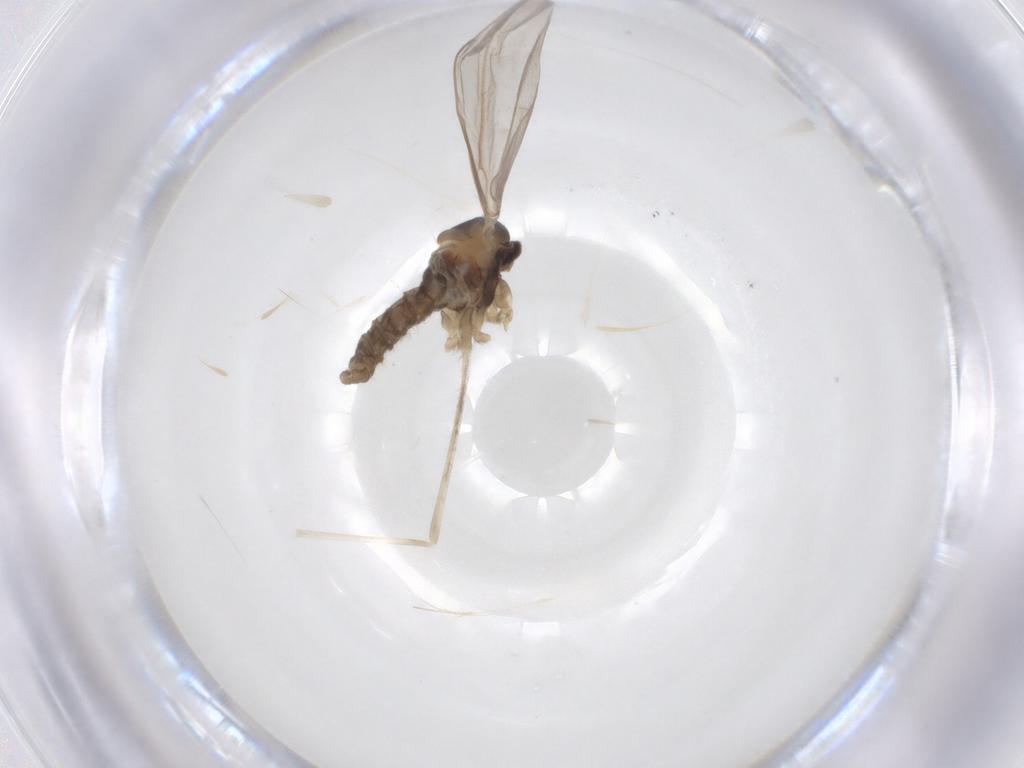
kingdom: Animalia
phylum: Arthropoda
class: Insecta
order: Diptera
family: Cecidomyiidae
